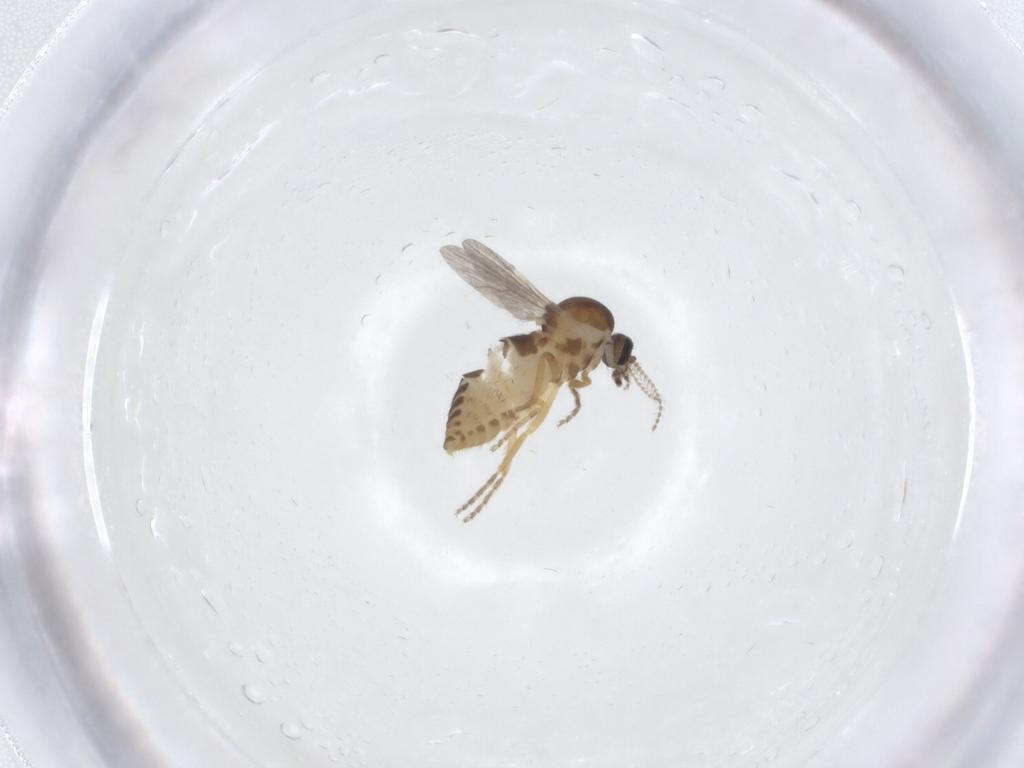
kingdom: Animalia
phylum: Arthropoda
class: Insecta
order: Diptera
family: Ceratopogonidae
